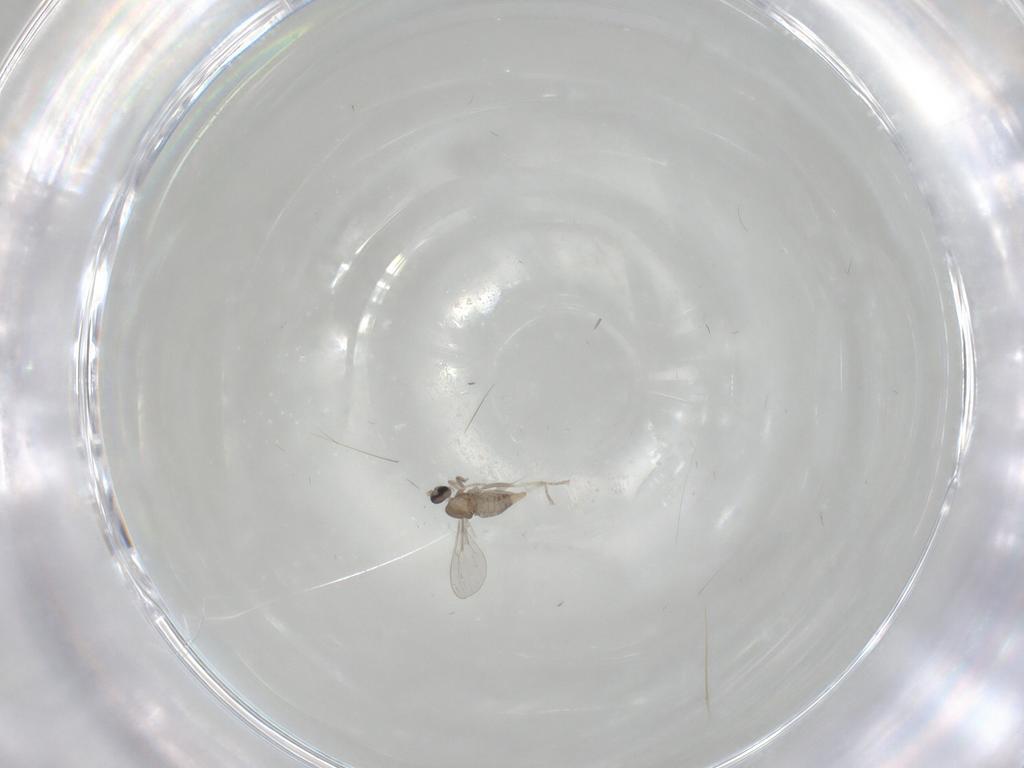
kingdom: Animalia
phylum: Arthropoda
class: Insecta
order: Diptera
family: Cecidomyiidae
